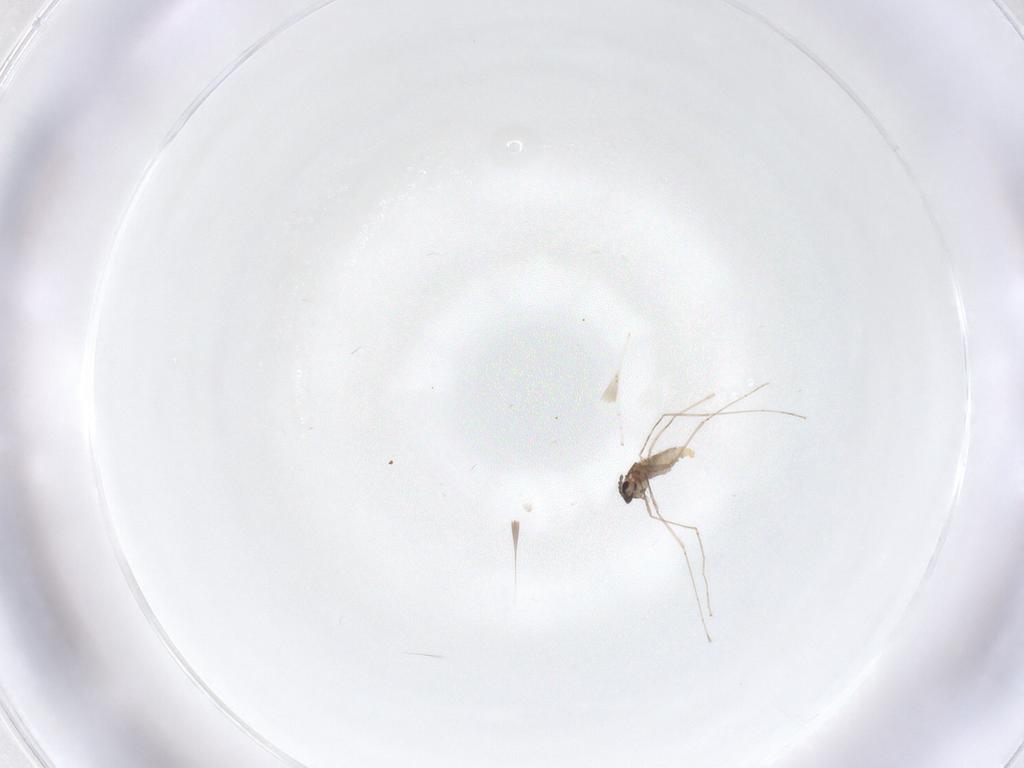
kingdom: Animalia
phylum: Arthropoda
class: Insecta
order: Diptera
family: Cecidomyiidae
